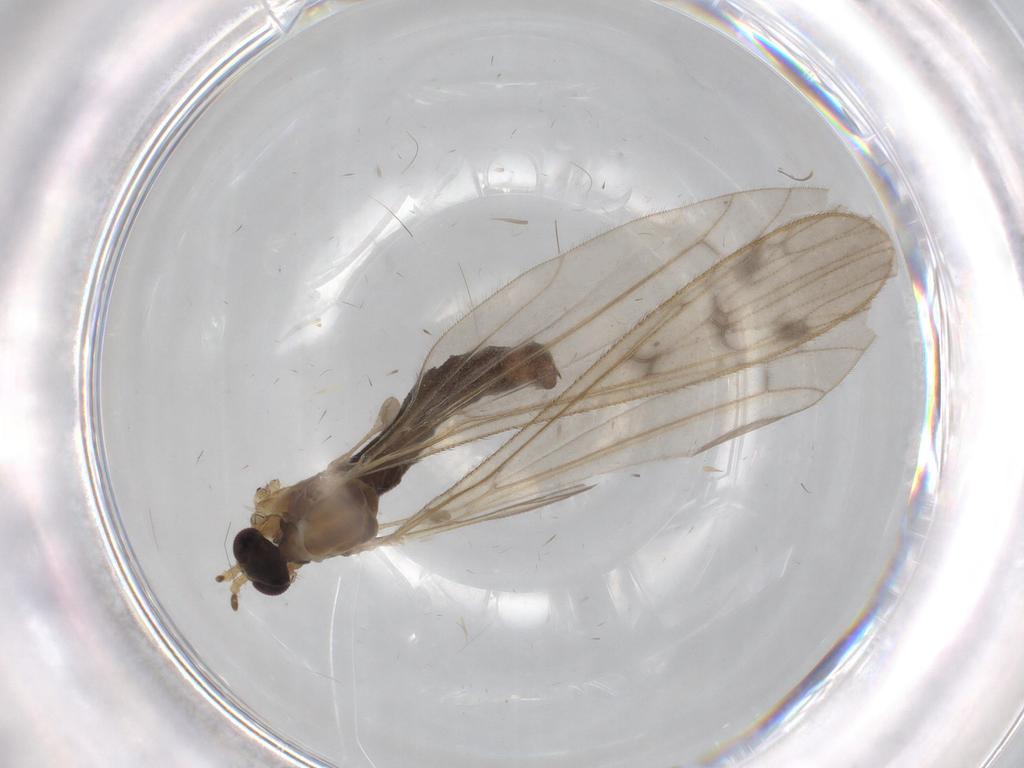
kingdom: Animalia
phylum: Arthropoda
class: Insecta
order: Diptera
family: Drosophilidae
